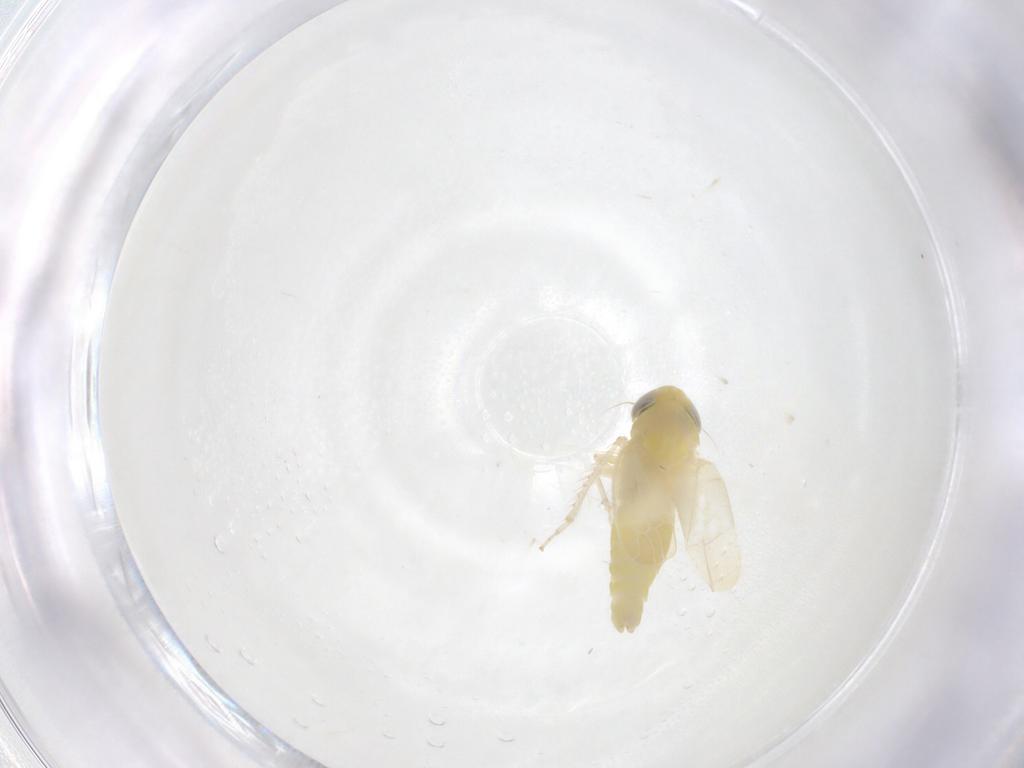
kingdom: Animalia
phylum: Arthropoda
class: Insecta
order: Hemiptera
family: Cicadellidae
